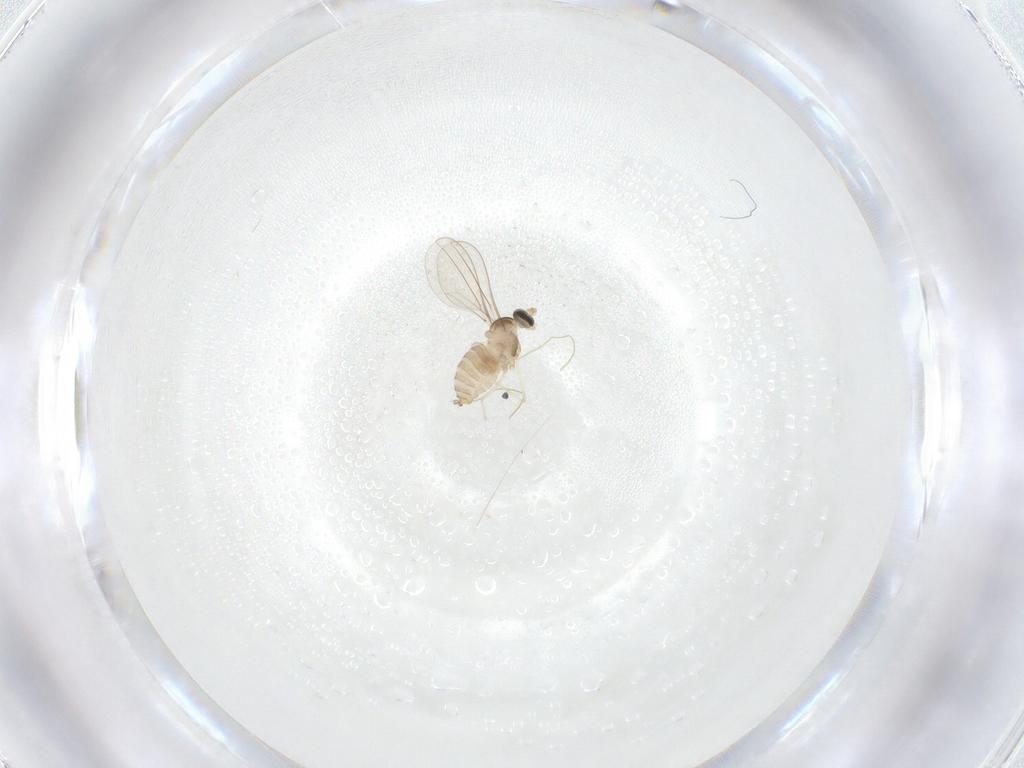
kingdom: Animalia
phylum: Arthropoda
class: Insecta
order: Diptera
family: Cecidomyiidae
